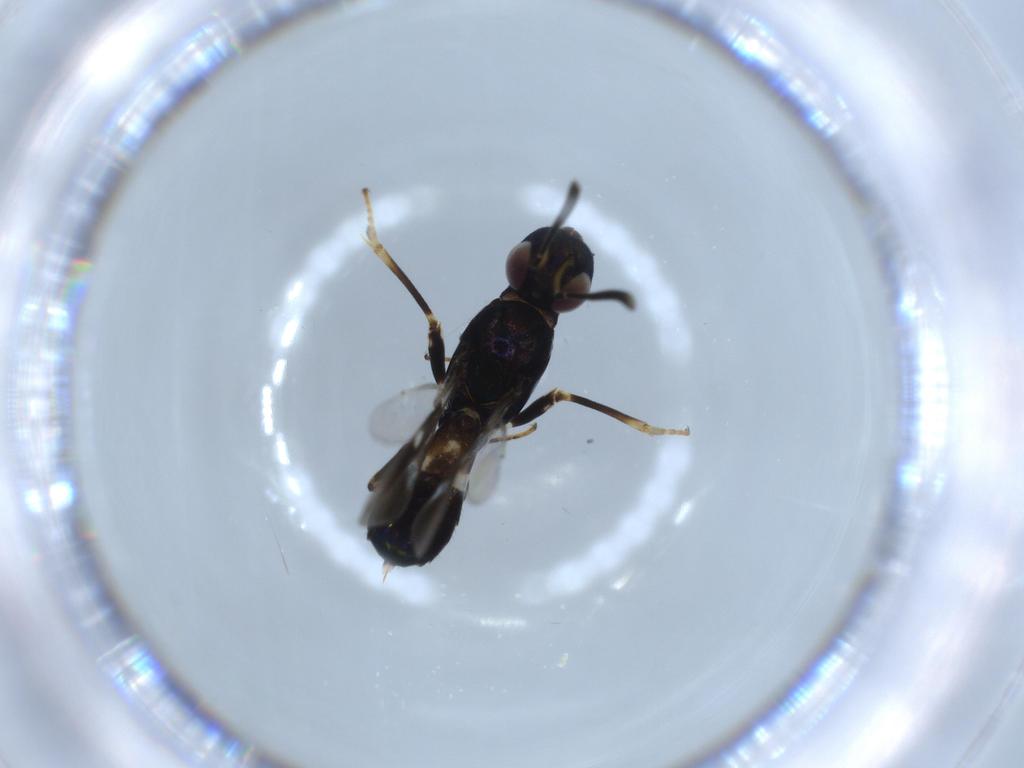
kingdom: Animalia
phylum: Arthropoda
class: Insecta
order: Hymenoptera
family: Eupelmidae
